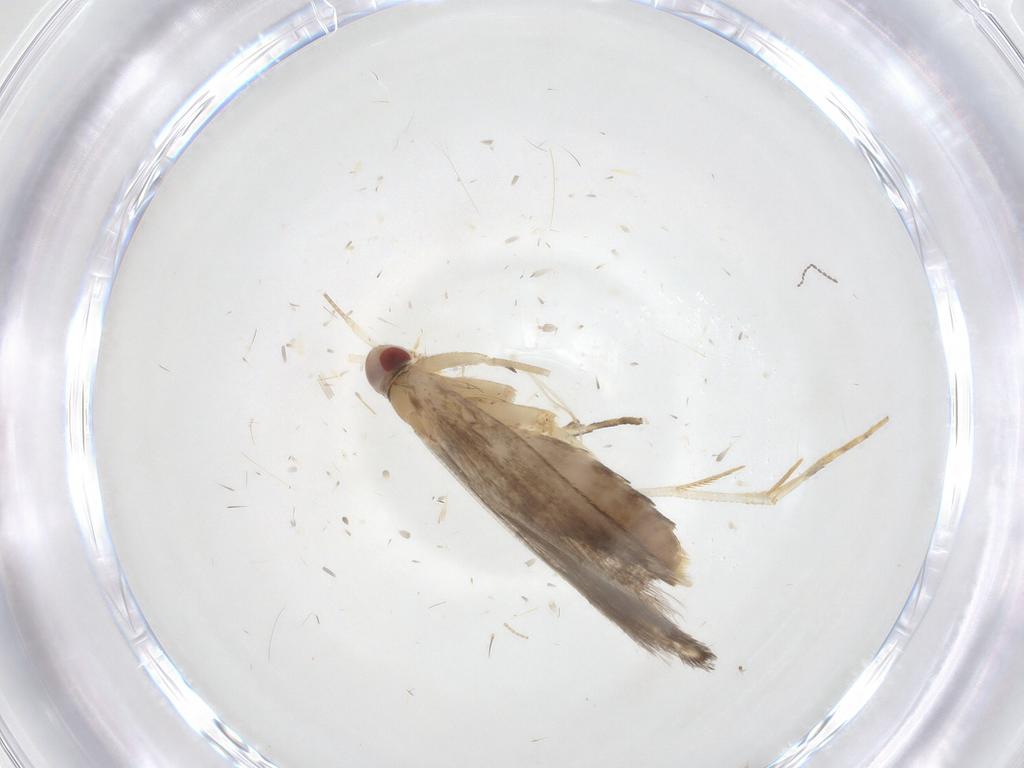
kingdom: Animalia
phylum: Arthropoda
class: Insecta
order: Lepidoptera
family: Cosmopterigidae
